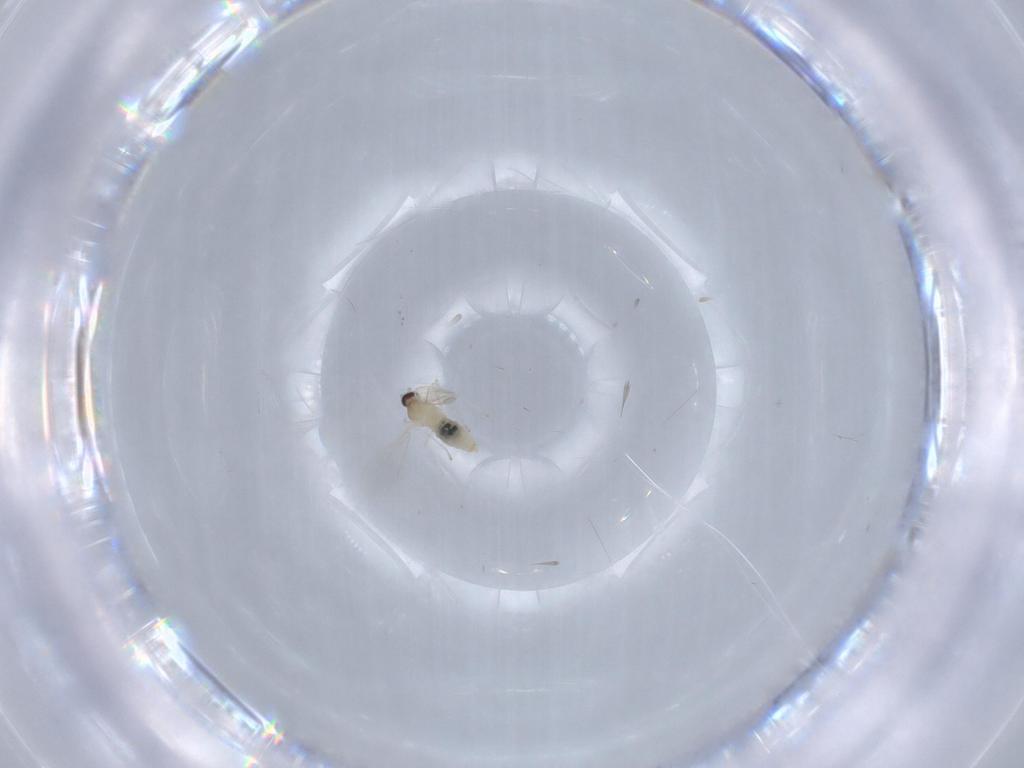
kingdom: Animalia
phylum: Arthropoda
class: Insecta
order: Diptera
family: Cecidomyiidae
